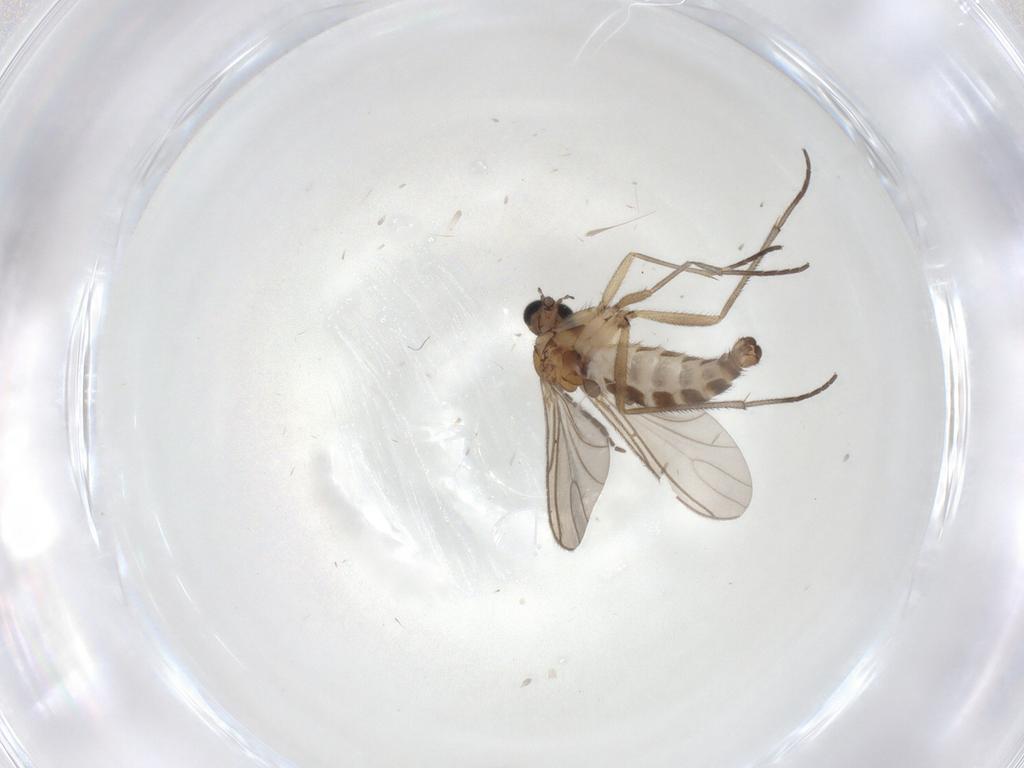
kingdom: Animalia
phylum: Arthropoda
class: Insecta
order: Diptera
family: Sciaridae
